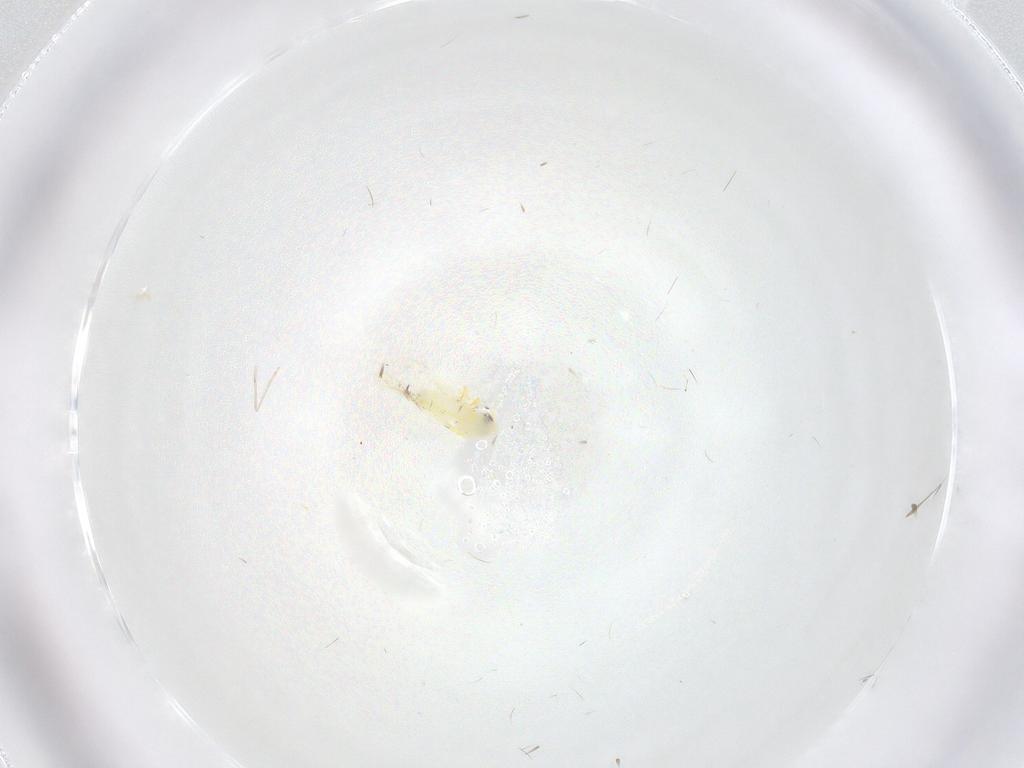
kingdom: Animalia
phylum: Arthropoda
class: Insecta
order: Hemiptera
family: Aleyrodidae
